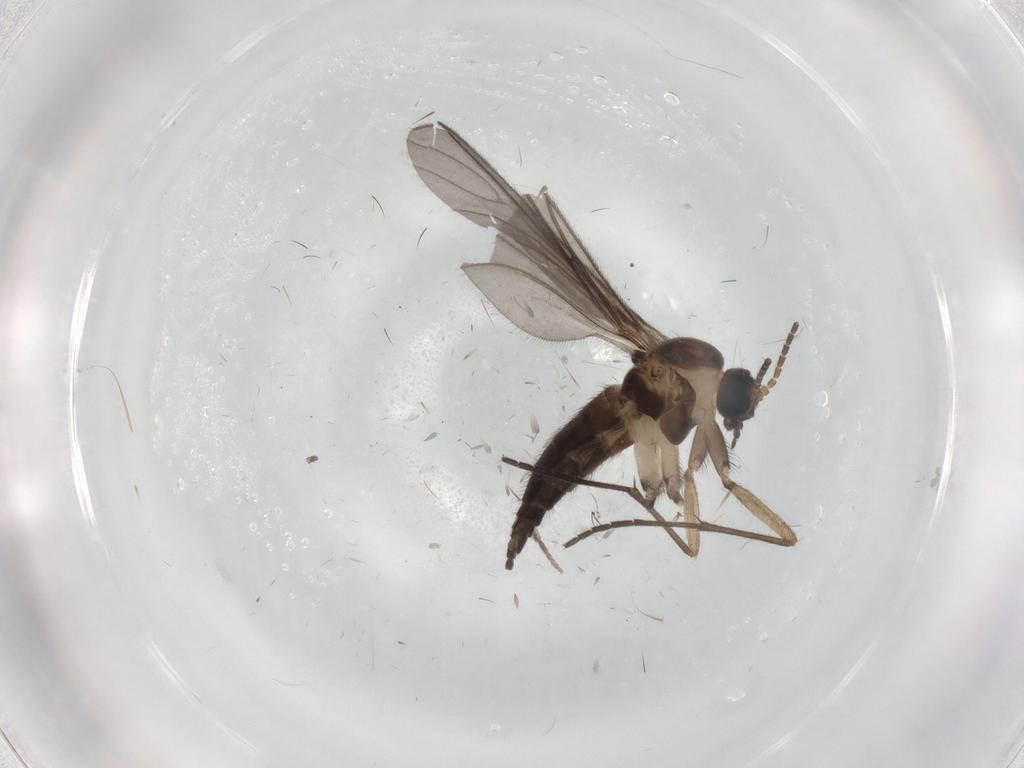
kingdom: Animalia
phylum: Arthropoda
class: Insecta
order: Diptera
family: Sciaridae
